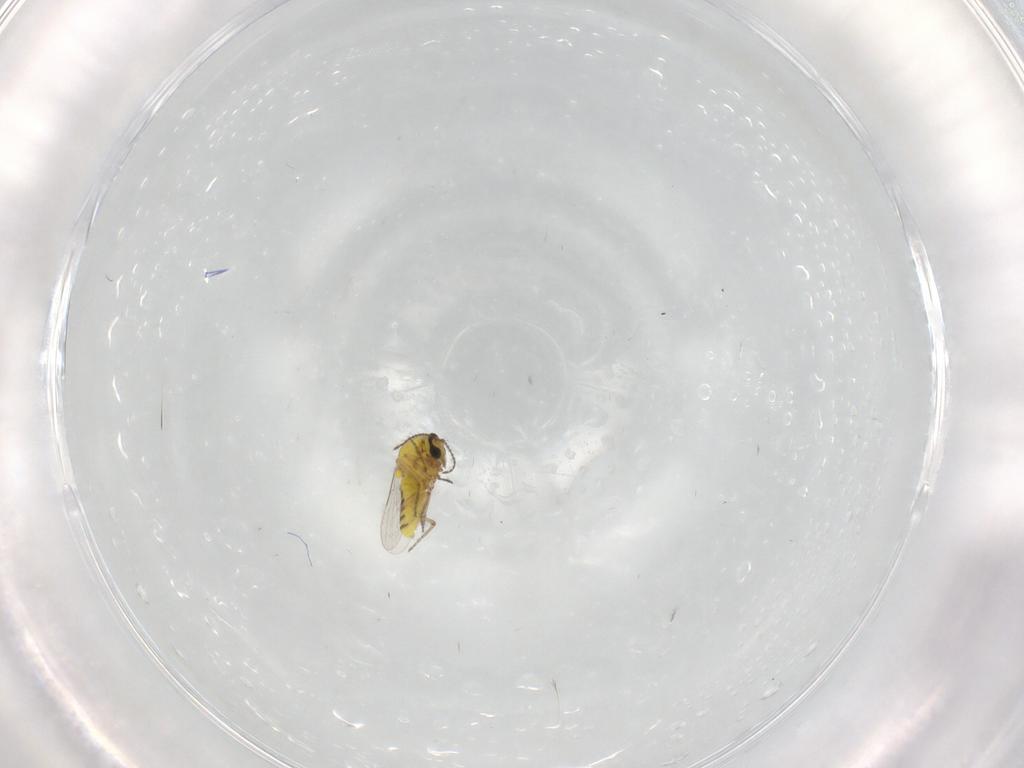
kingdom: Animalia
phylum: Arthropoda
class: Insecta
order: Diptera
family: Ceratopogonidae
